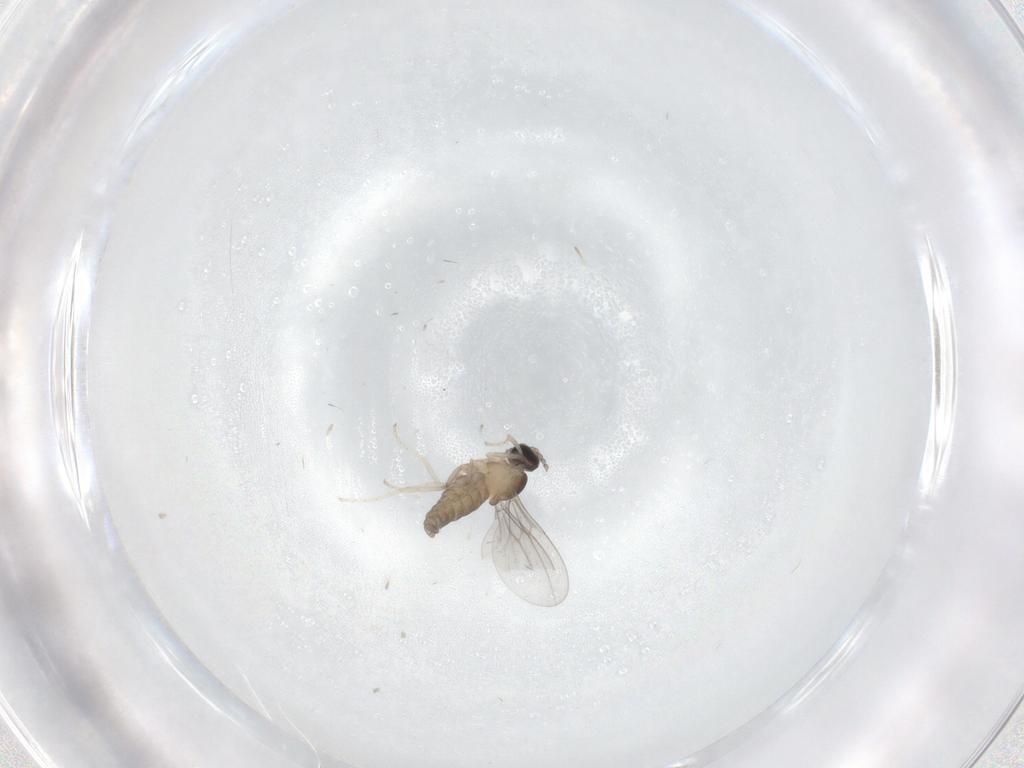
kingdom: Animalia
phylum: Arthropoda
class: Insecta
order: Diptera
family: Cecidomyiidae
